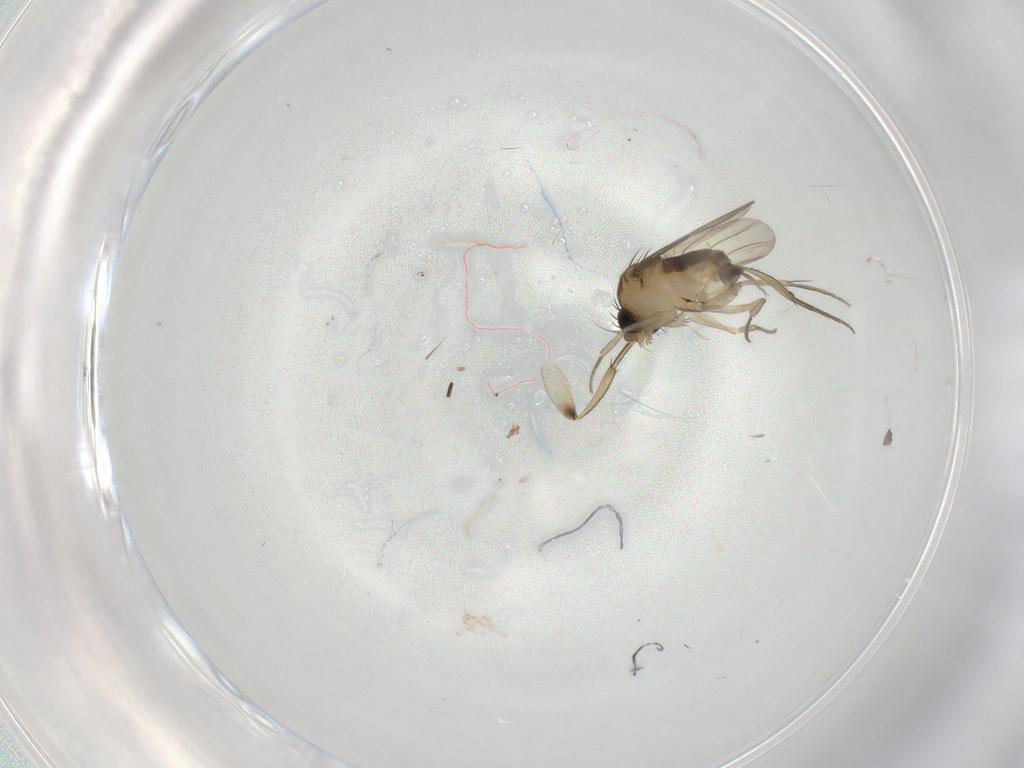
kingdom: Animalia
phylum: Arthropoda
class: Insecta
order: Diptera
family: Phoridae
